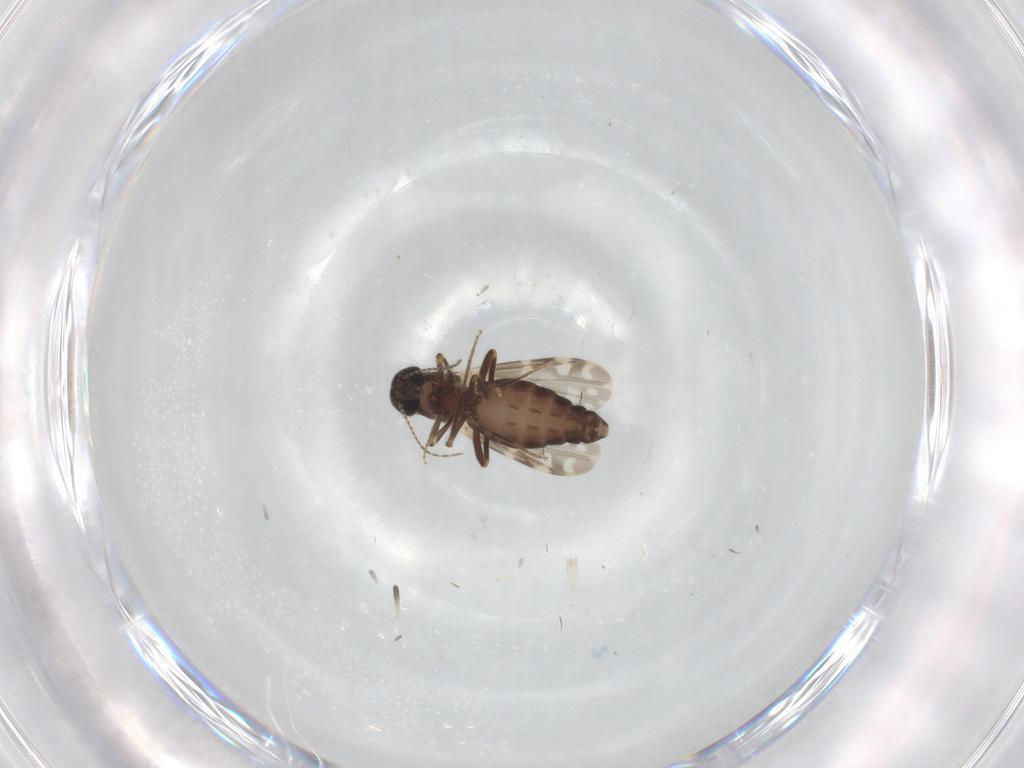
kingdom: Animalia
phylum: Arthropoda
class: Insecta
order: Diptera
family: Ceratopogonidae
